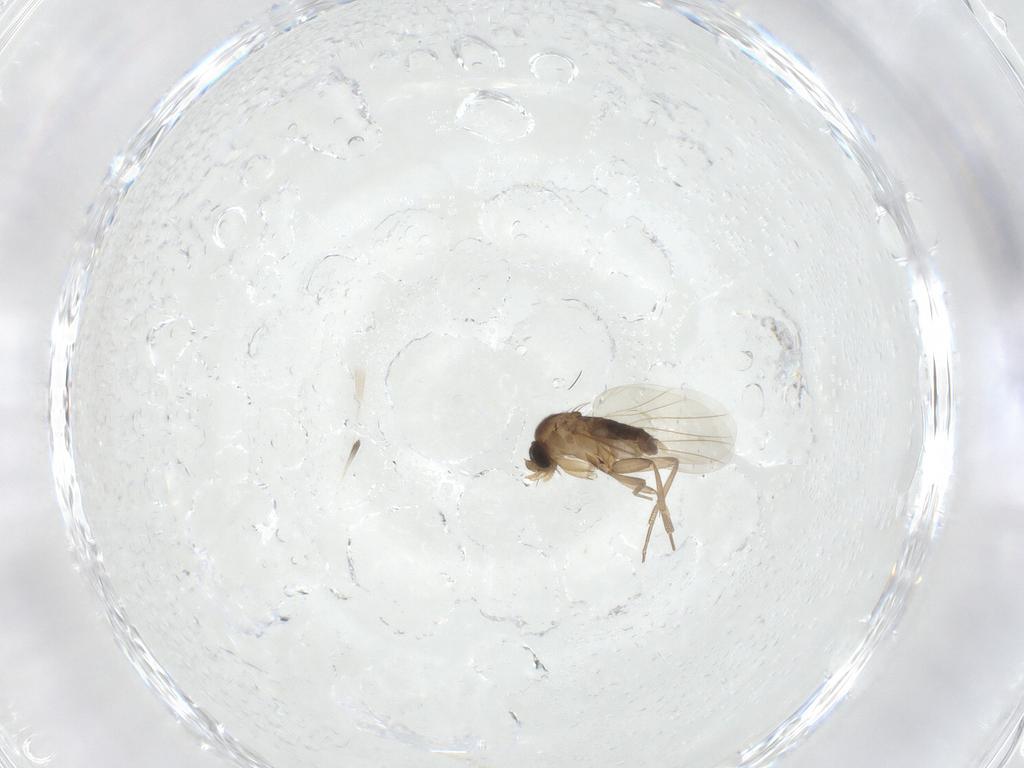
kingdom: Animalia
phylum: Arthropoda
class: Insecta
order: Diptera
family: Phoridae
